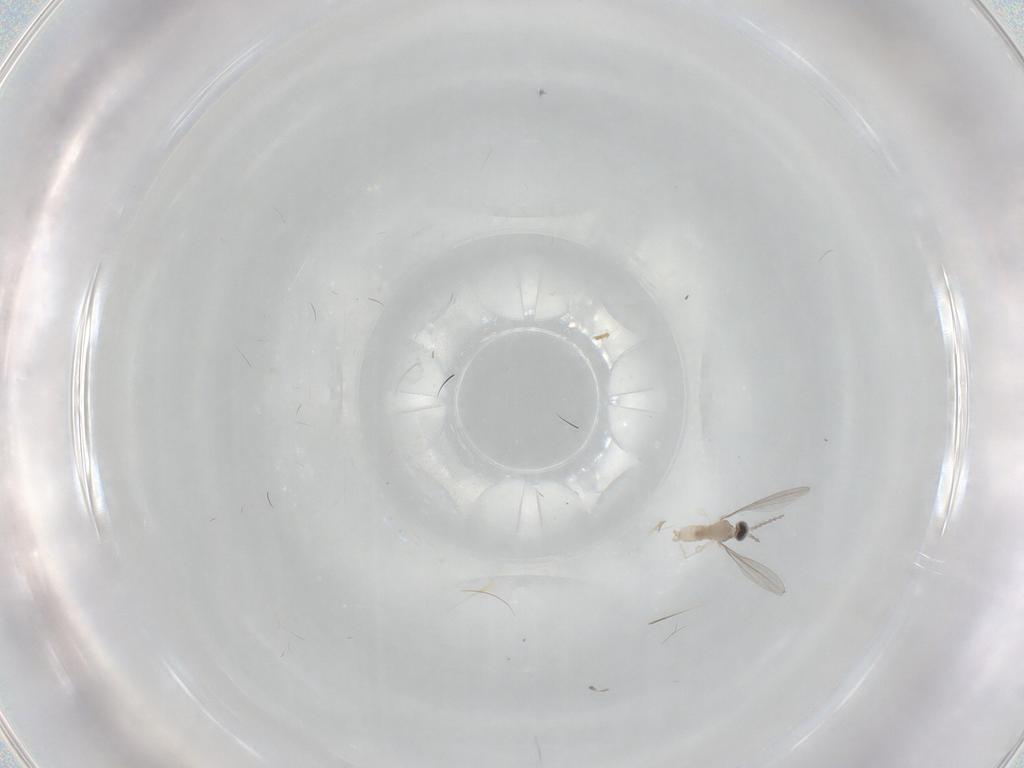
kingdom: Animalia
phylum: Arthropoda
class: Insecta
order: Diptera
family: Cecidomyiidae
